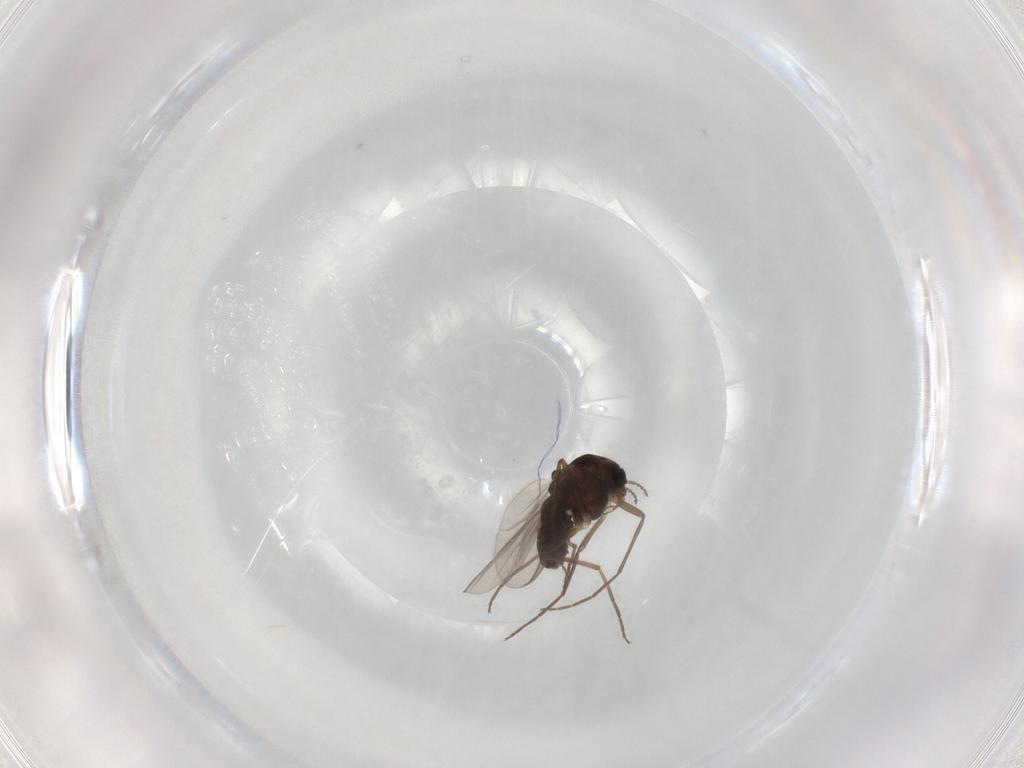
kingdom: Animalia
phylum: Arthropoda
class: Insecta
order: Diptera
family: Chironomidae
